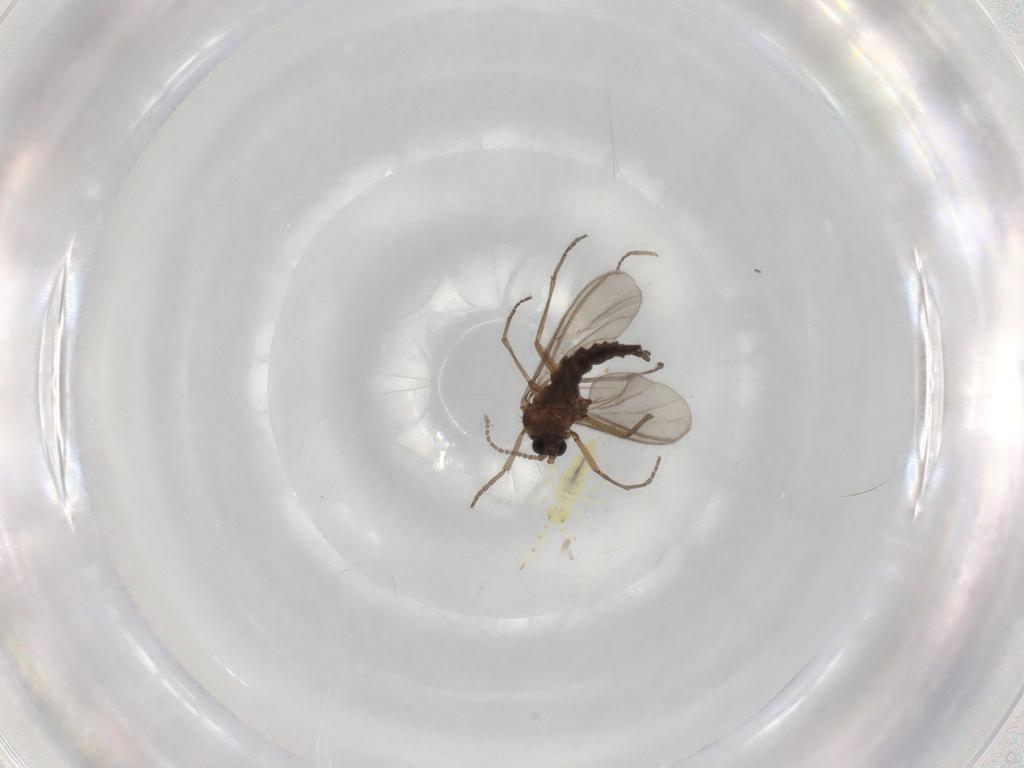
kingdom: Animalia
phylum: Arthropoda
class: Insecta
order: Diptera
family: Sciaridae
